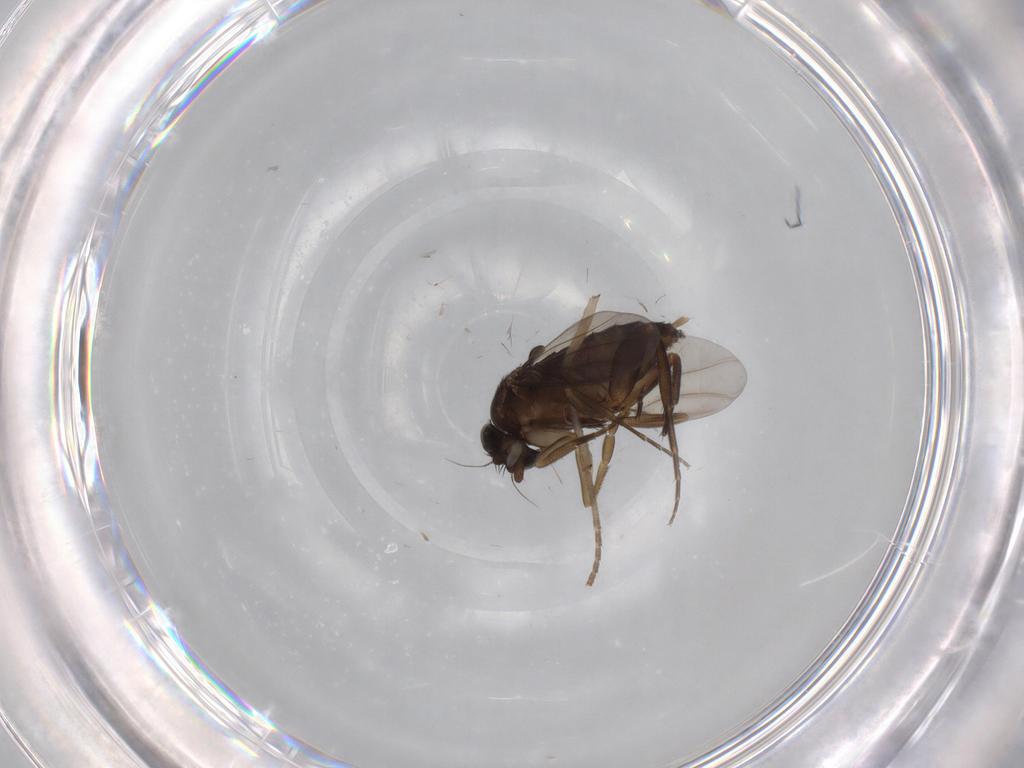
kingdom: Animalia
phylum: Arthropoda
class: Insecta
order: Diptera
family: Phoridae
